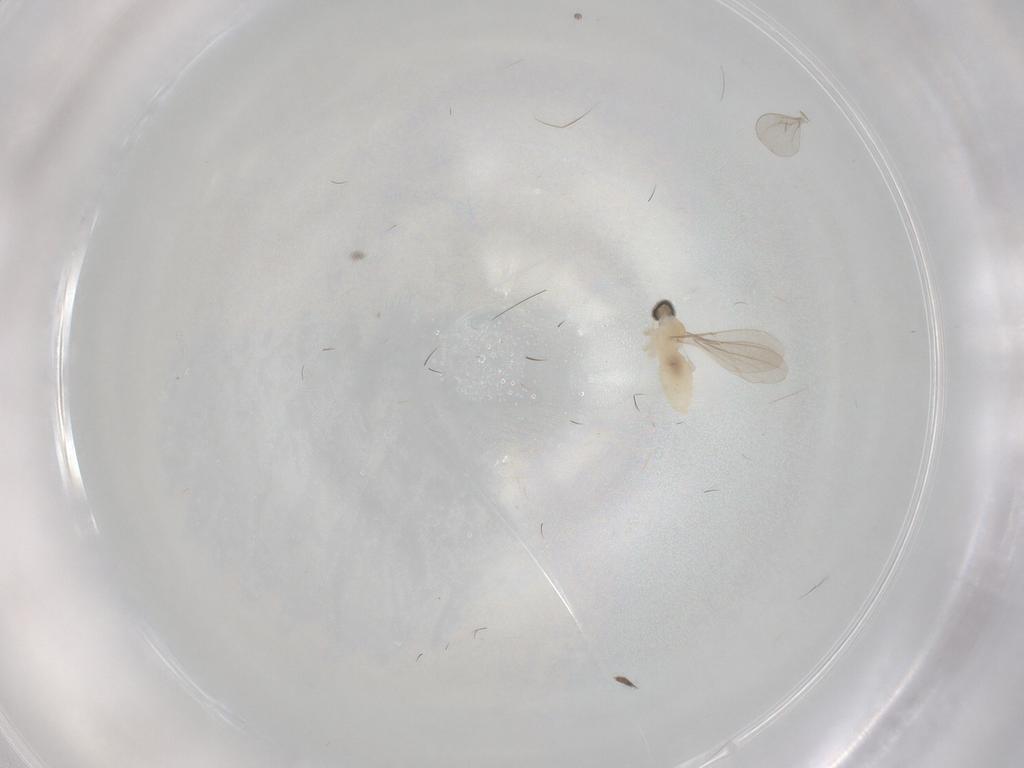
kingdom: Animalia
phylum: Arthropoda
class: Insecta
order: Diptera
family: Cecidomyiidae
